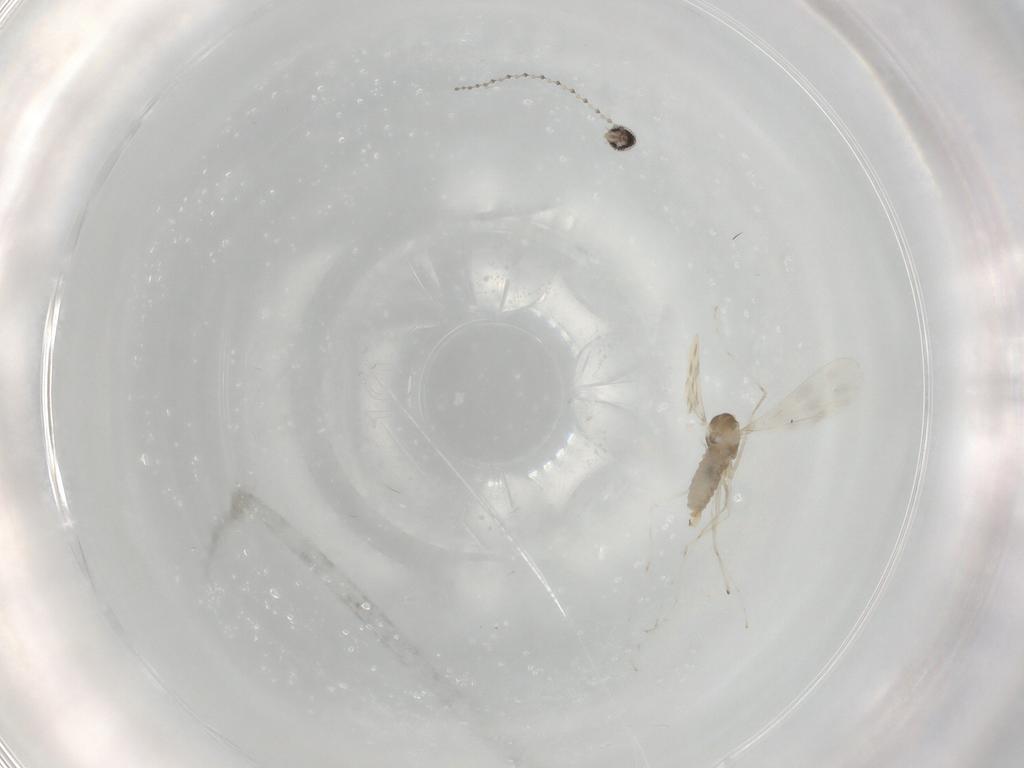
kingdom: Animalia
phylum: Arthropoda
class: Insecta
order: Diptera
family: Cecidomyiidae
